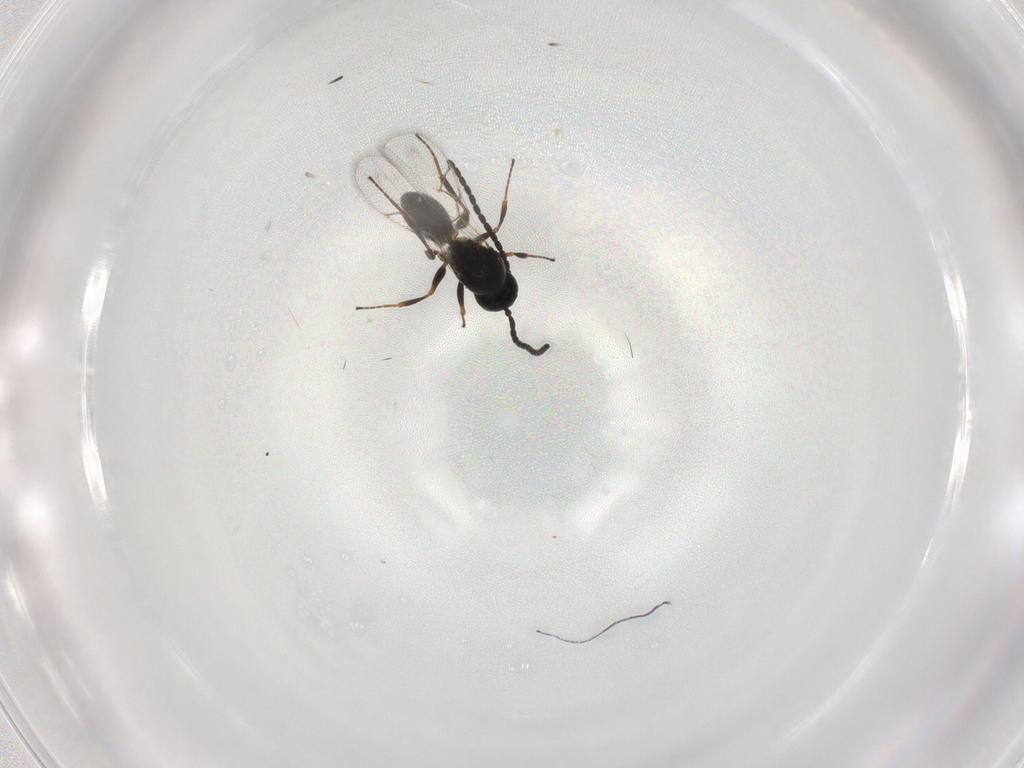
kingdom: Animalia
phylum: Arthropoda
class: Insecta
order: Hymenoptera
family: Figitidae
